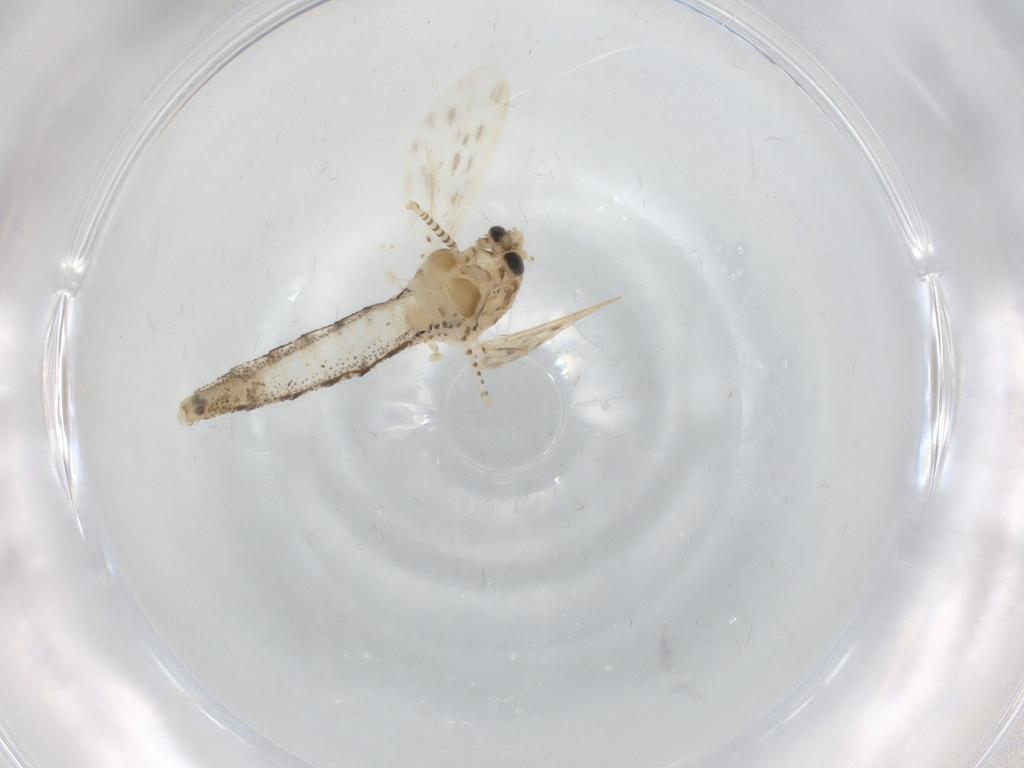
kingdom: Animalia
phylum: Arthropoda
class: Insecta
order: Diptera
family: Chaoboridae
